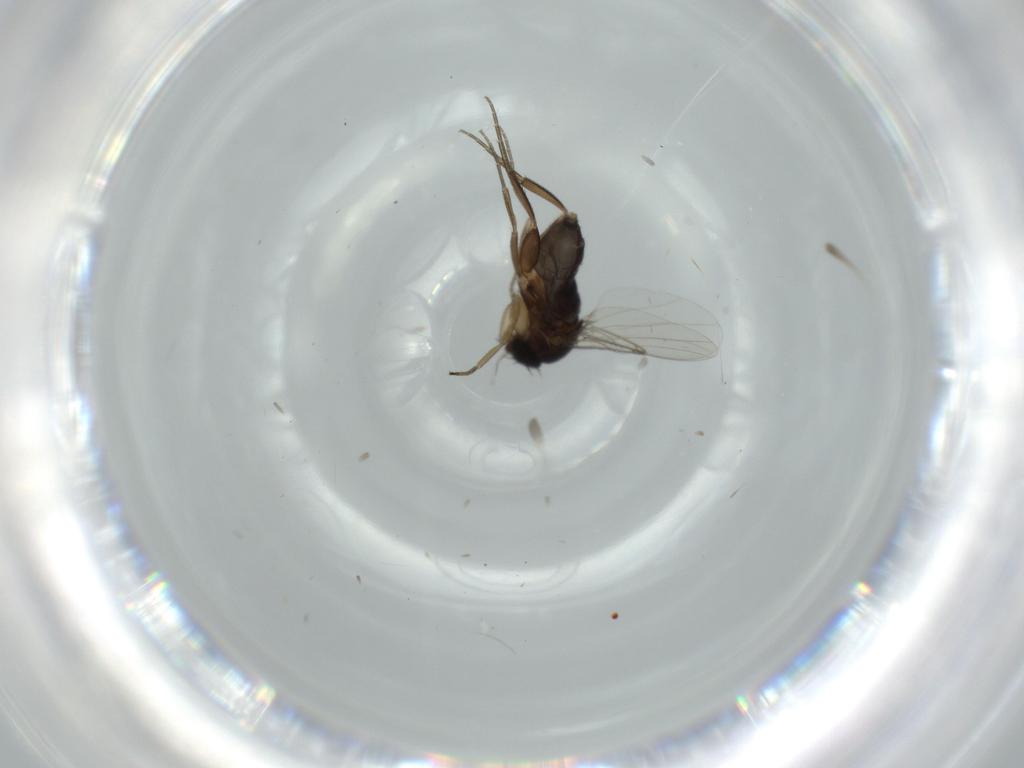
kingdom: Animalia
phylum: Arthropoda
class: Insecta
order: Diptera
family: Phoridae
